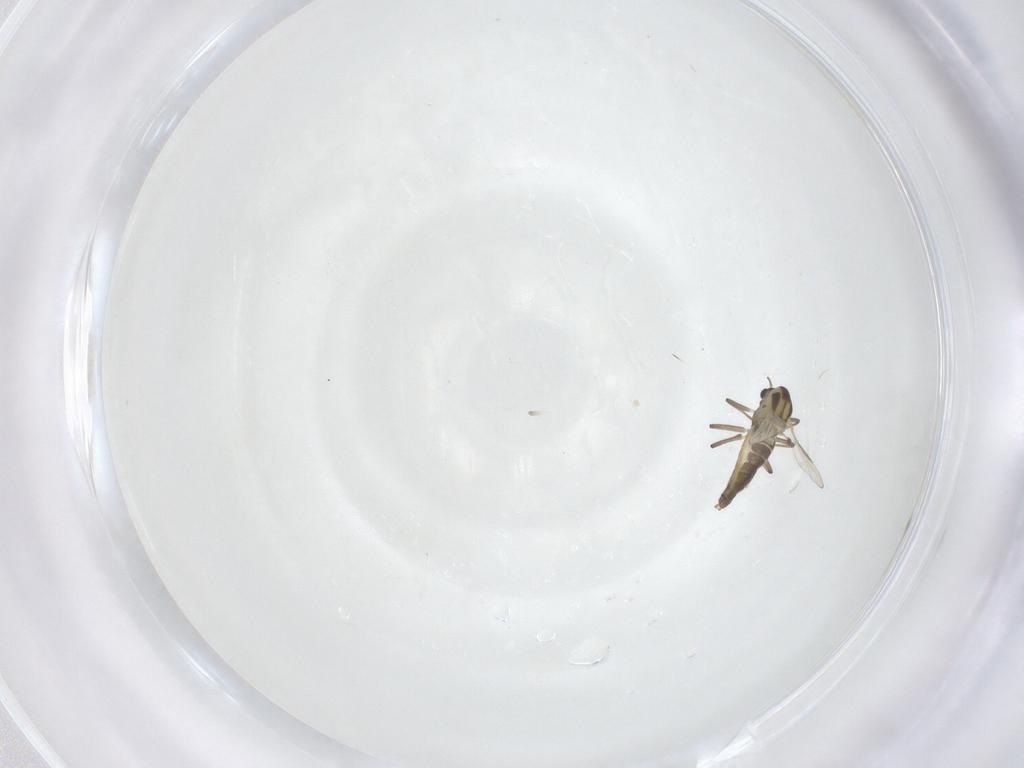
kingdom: Animalia
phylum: Arthropoda
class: Insecta
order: Diptera
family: Chironomidae
